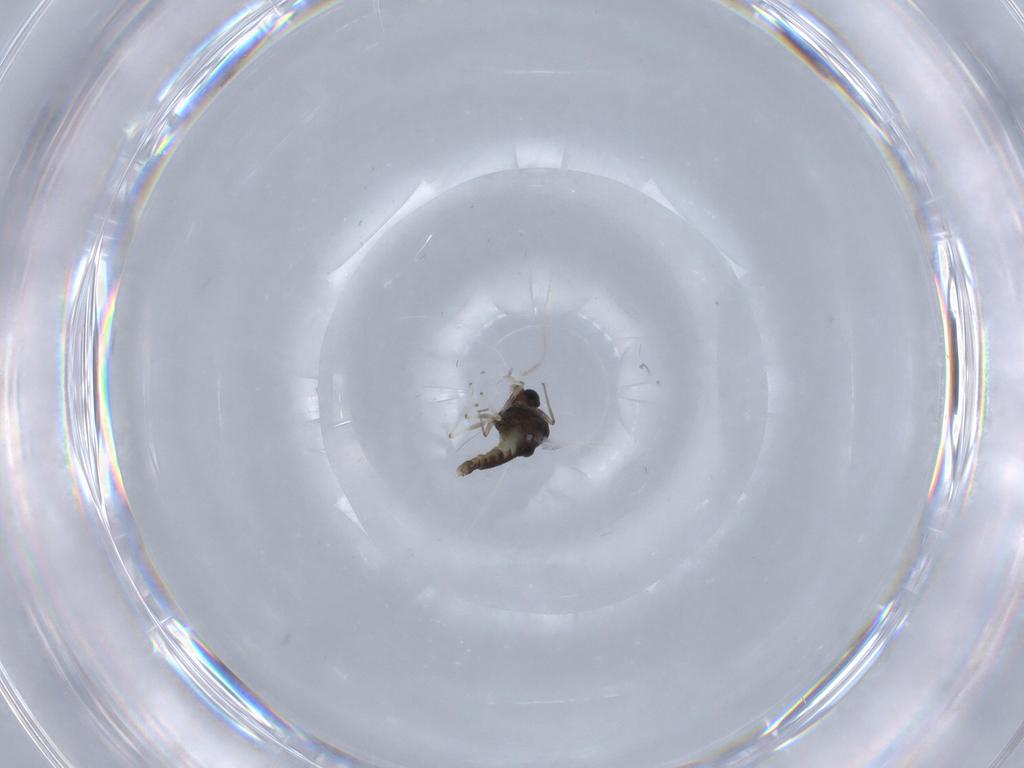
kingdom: Animalia
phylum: Arthropoda
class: Insecta
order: Diptera
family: Chironomidae
